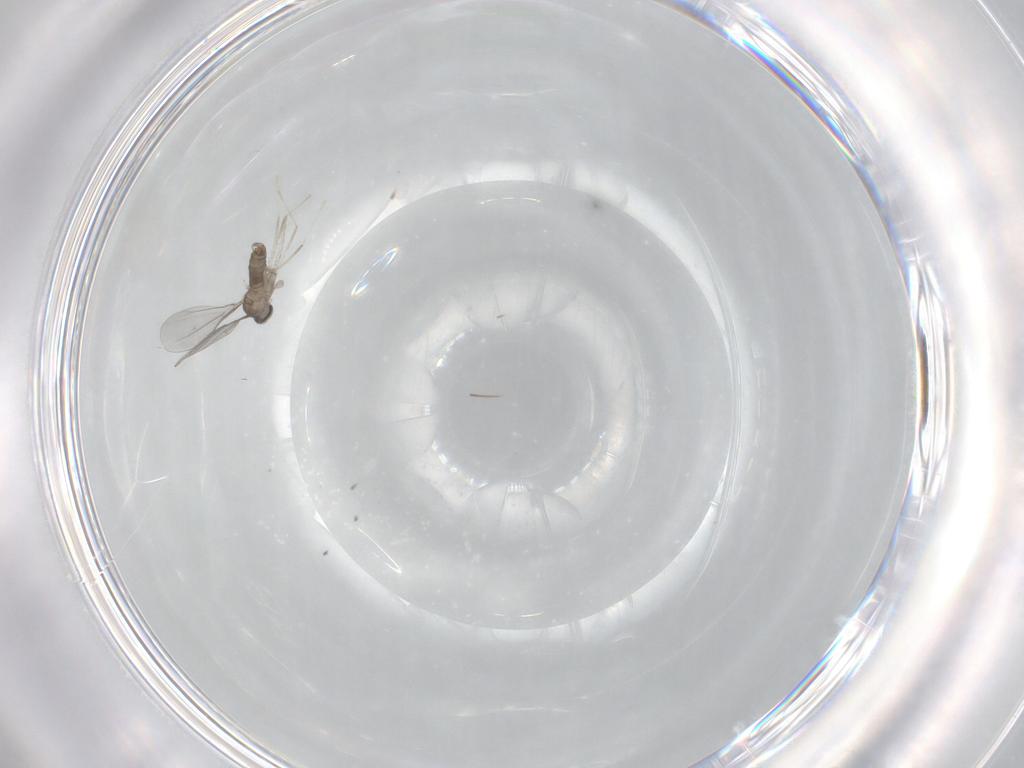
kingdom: Animalia
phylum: Arthropoda
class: Insecta
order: Diptera
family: Cecidomyiidae
